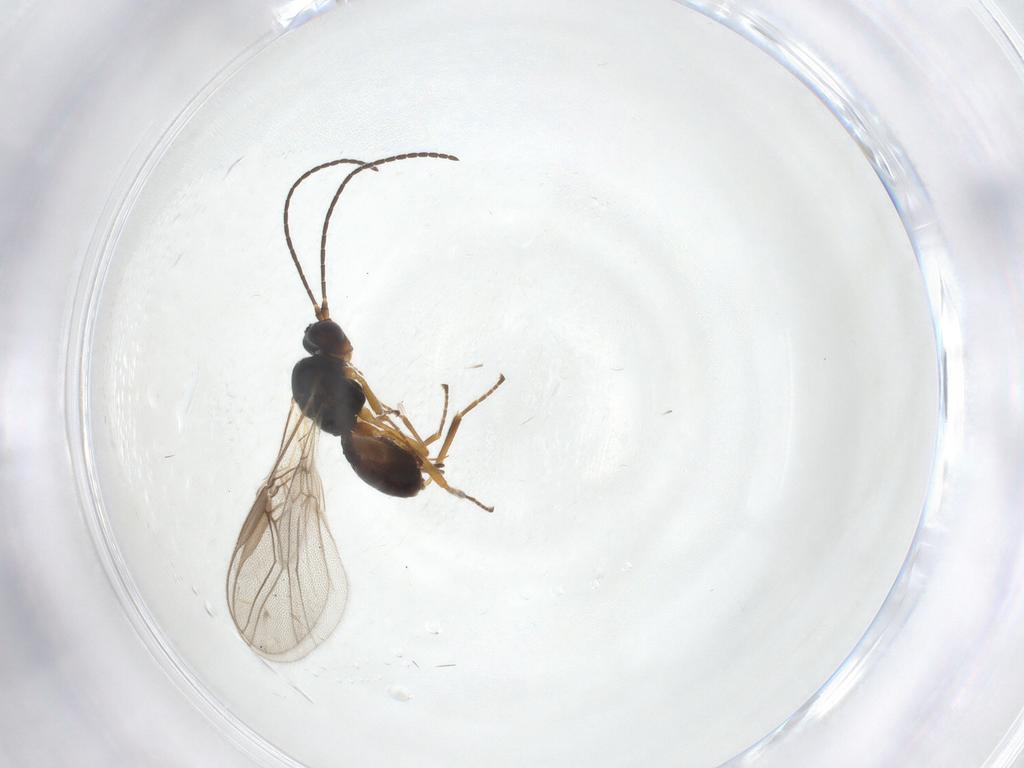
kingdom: Animalia
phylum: Arthropoda
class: Insecta
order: Hymenoptera
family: Braconidae
